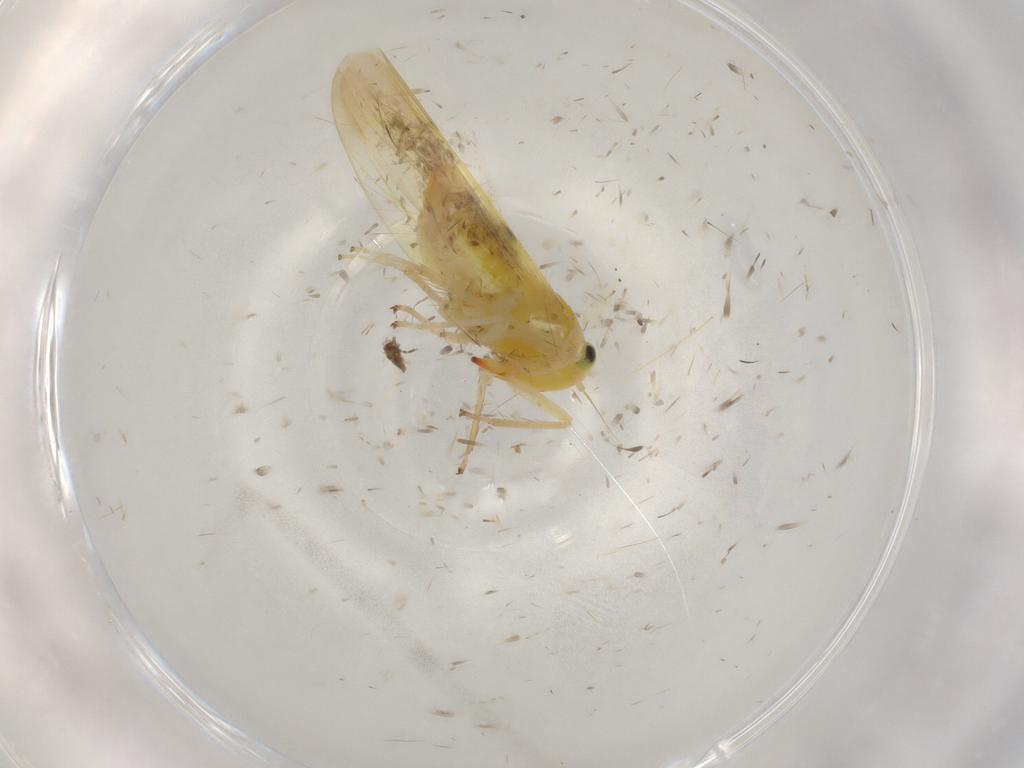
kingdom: Animalia
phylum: Arthropoda
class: Insecta
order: Hemiptera
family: Cicadellidae
